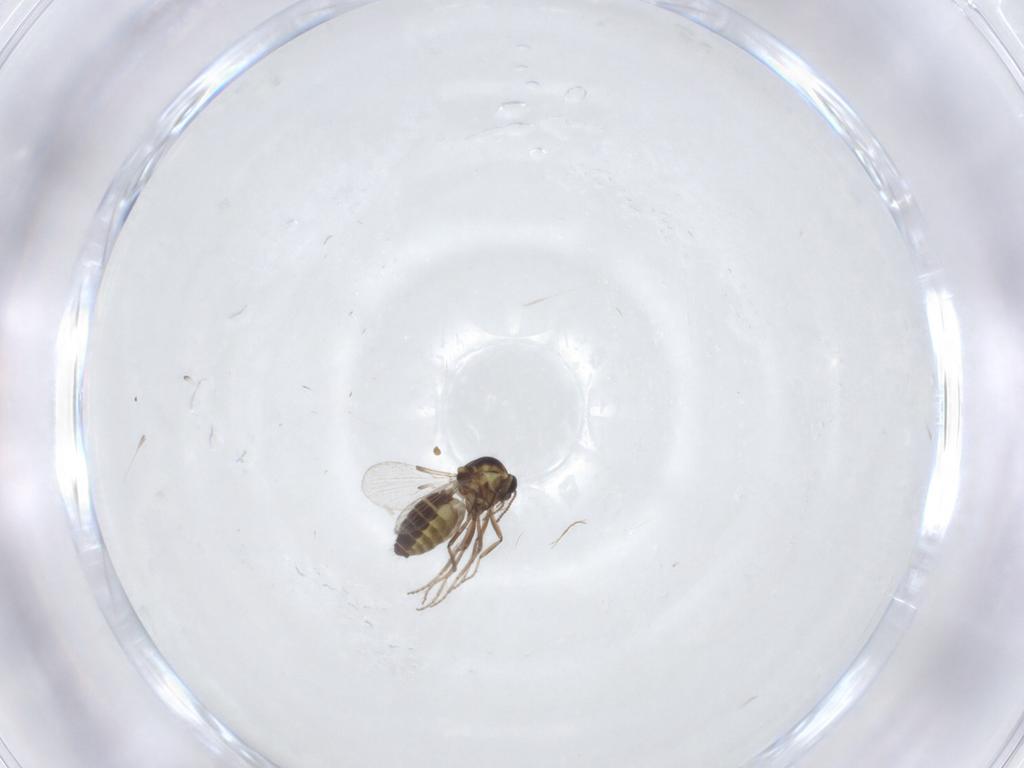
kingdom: Animalia
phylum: Arthropoda
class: Insecta
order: Diptera
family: Ceratopogonidae
